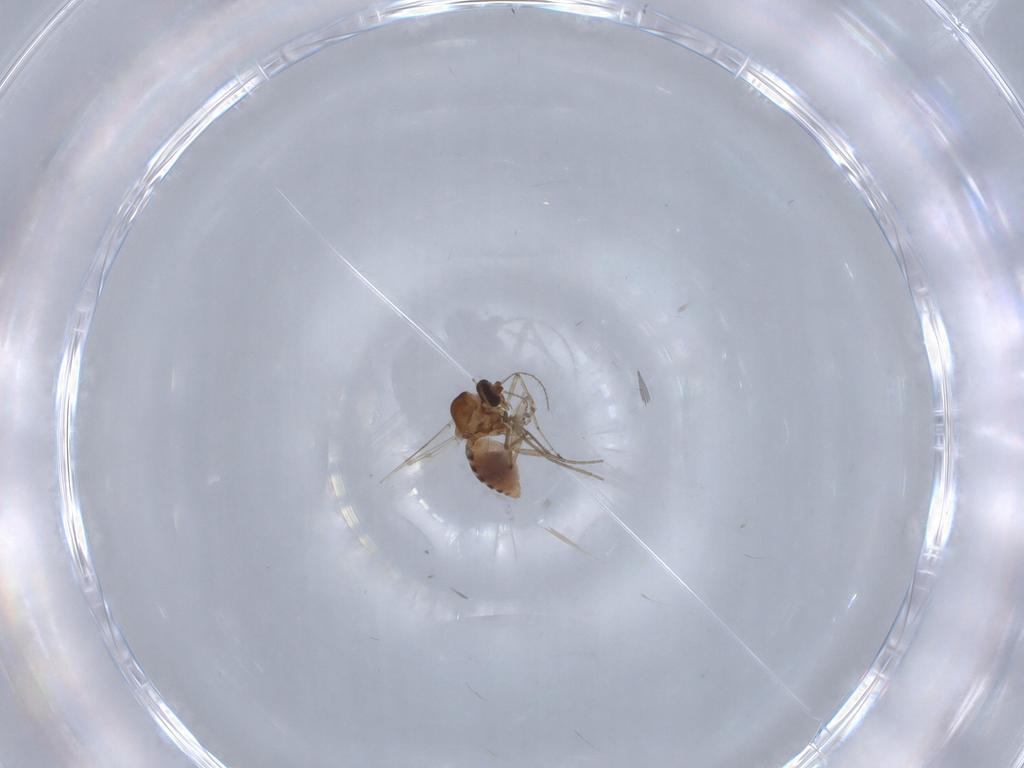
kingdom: Animalia
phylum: Arthropoda
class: Insecta
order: Diptera
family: Ceratopogonidae
